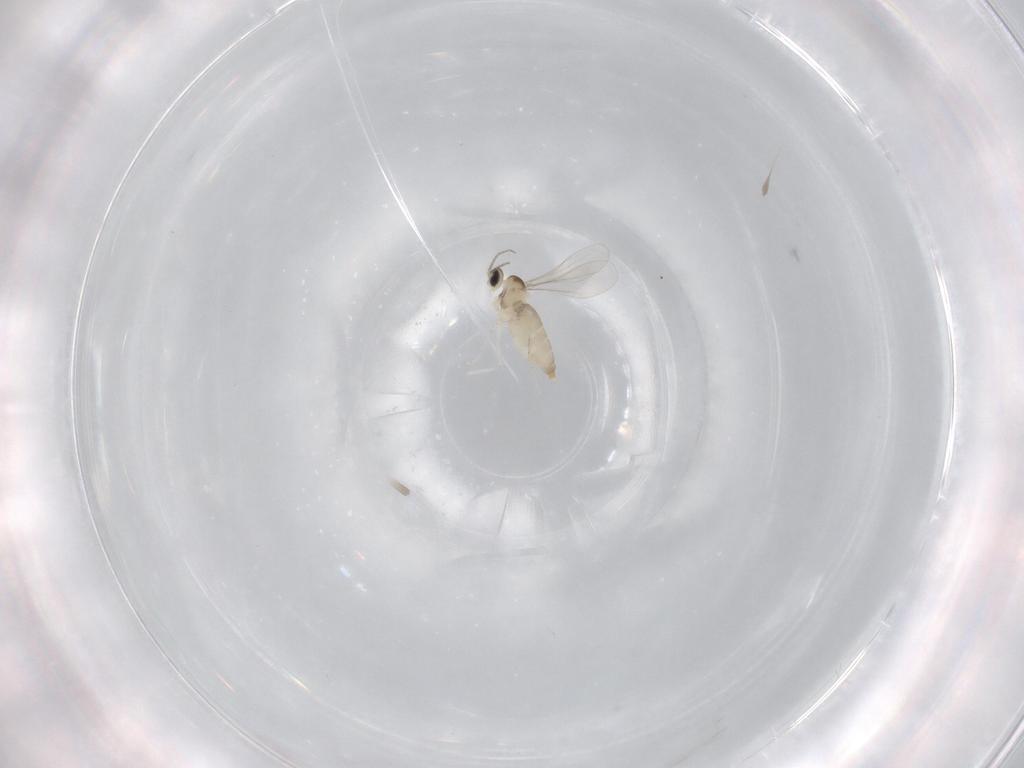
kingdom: Animalia
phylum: Arthropoda
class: Insecta
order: Diptera
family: Cecidomyiidae
